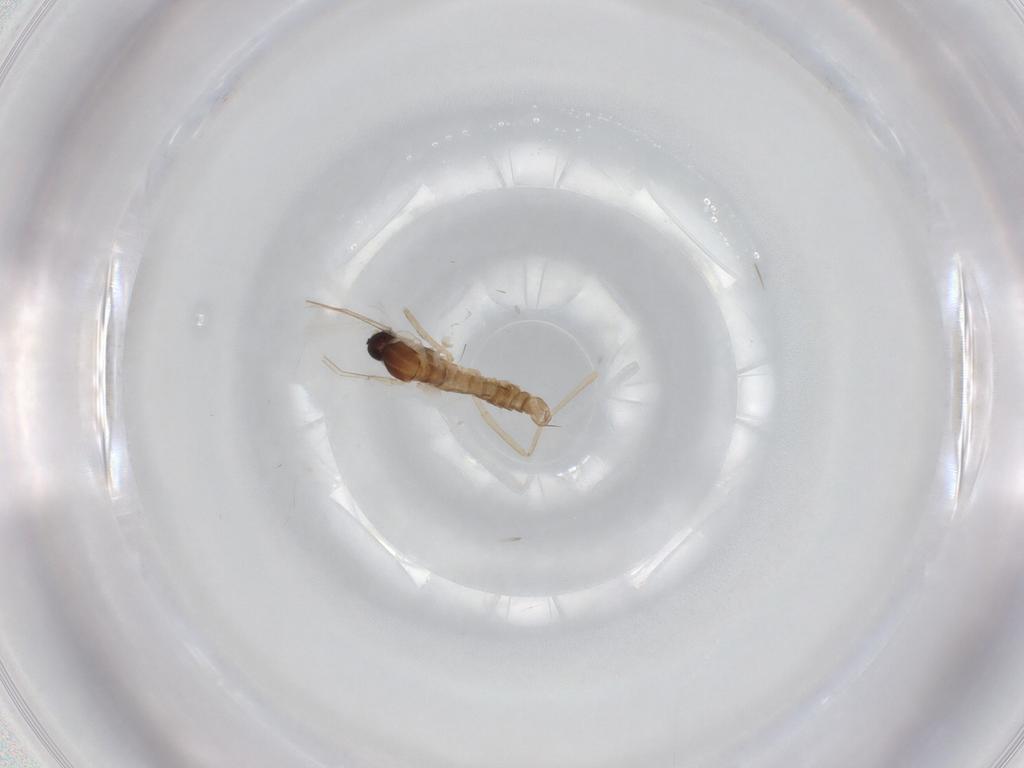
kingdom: Animalia
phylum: Arthropoda
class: Insecta
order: Diptera
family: Cecidomyiidae
